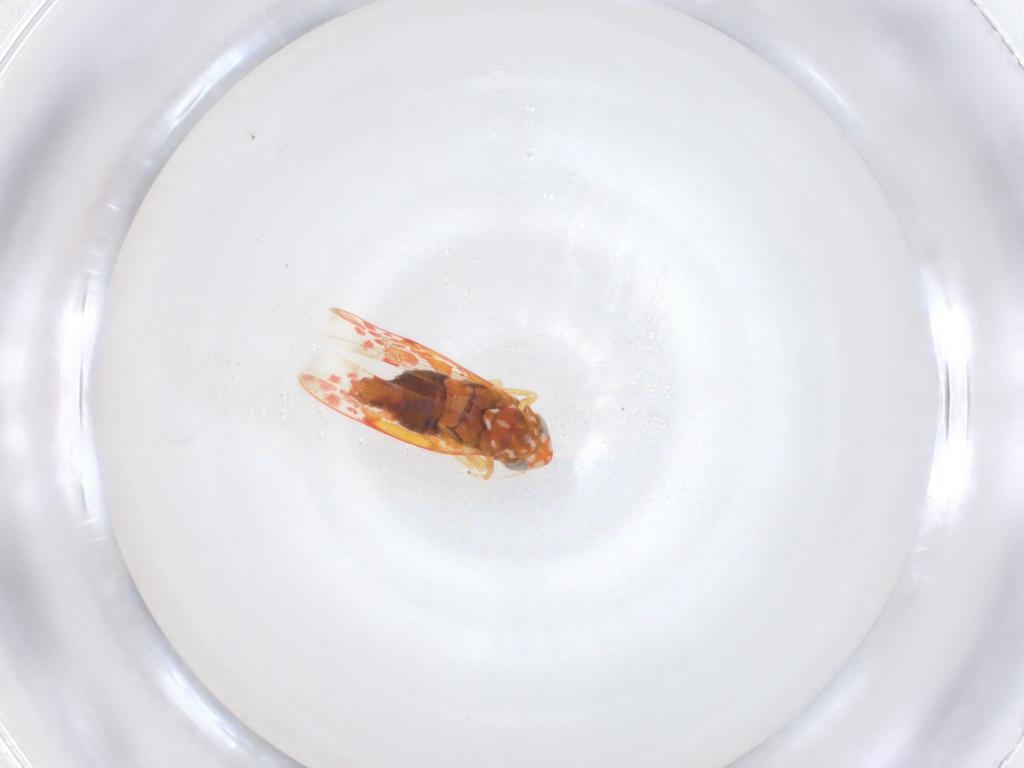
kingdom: Animalia
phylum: Arthropoda
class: Insecta
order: Hemiptera
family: Cicadellidae
